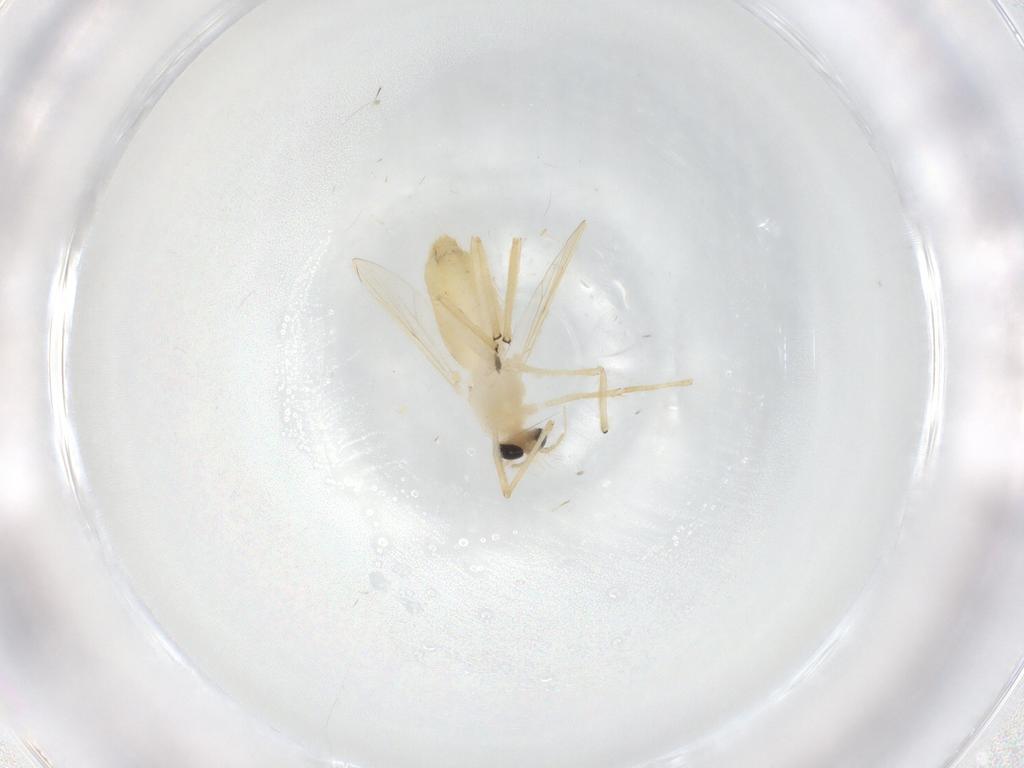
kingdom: Animalia
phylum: Arthropoda
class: Insecta
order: Diptera
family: Chironomidae
